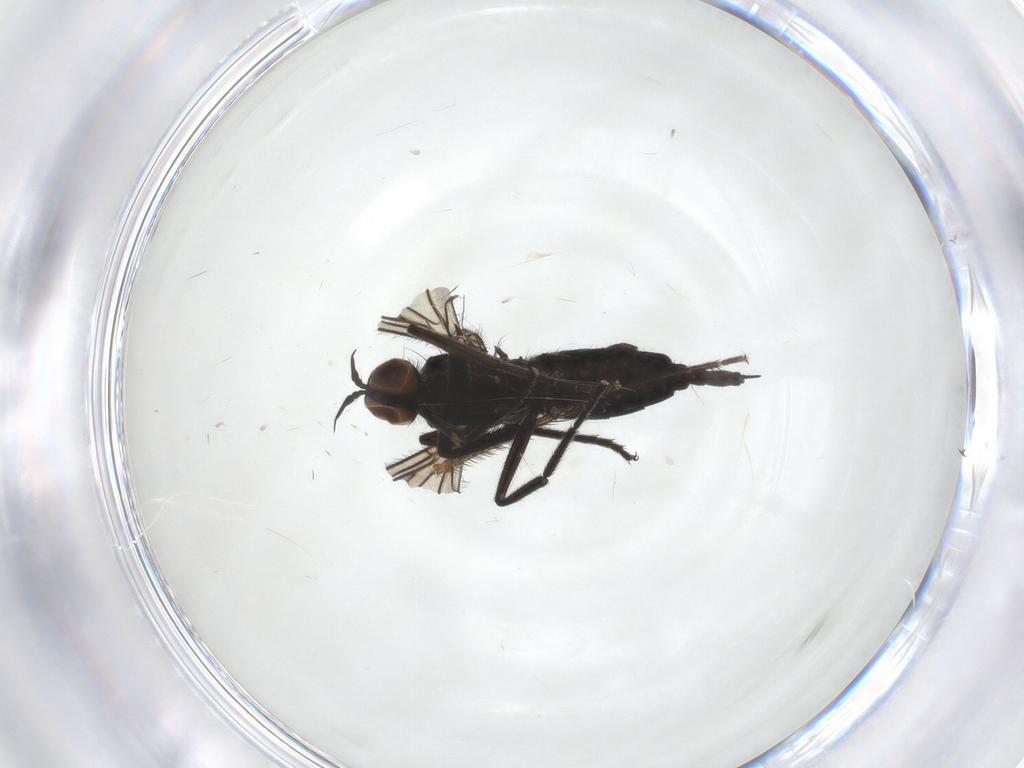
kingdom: Animalia
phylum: Arthropoda
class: Insecta
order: Diptera
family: Empididae
